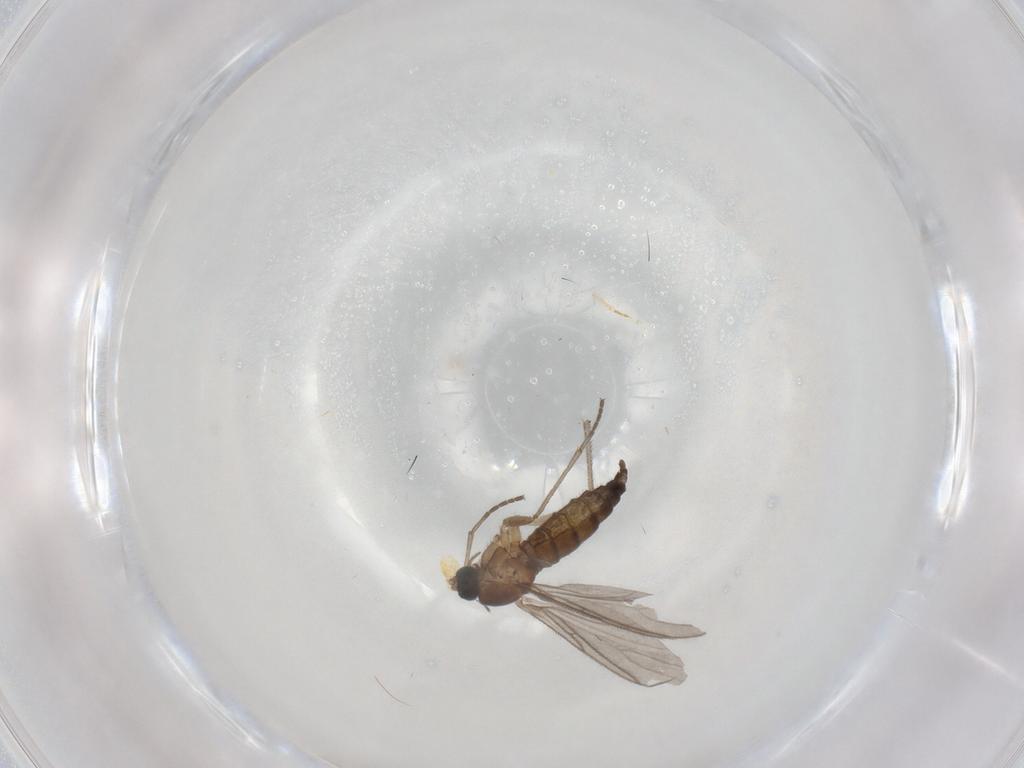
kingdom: Animalia
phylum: Arthropoda
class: Insecta
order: Diptera
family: Sciaridae
